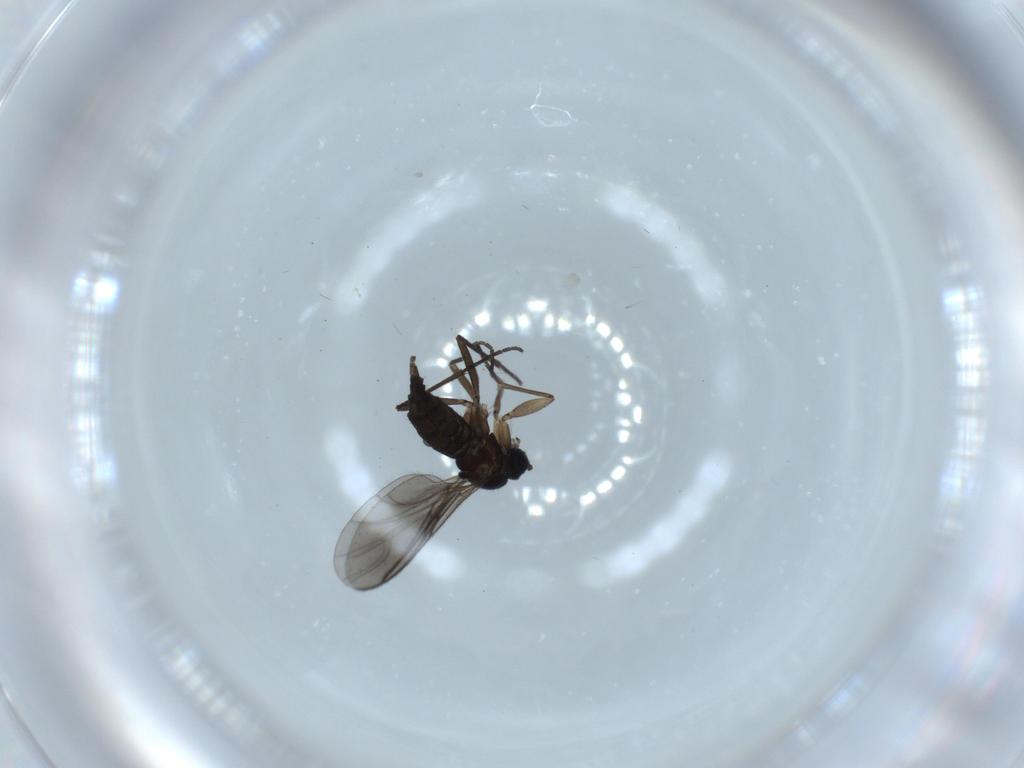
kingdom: Animalia
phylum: Arthropoda
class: Insecta
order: Diptera
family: Sciaridae
